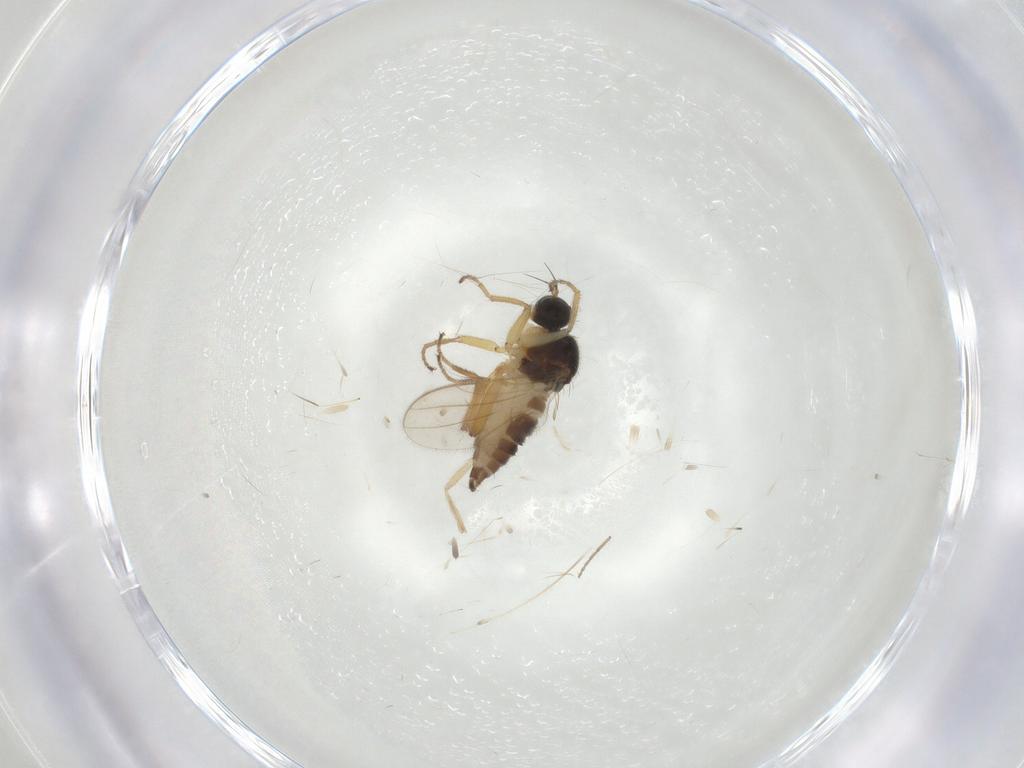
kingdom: Animalia
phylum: Arthropoda
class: Insecta
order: Diptera
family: Hybotidae
